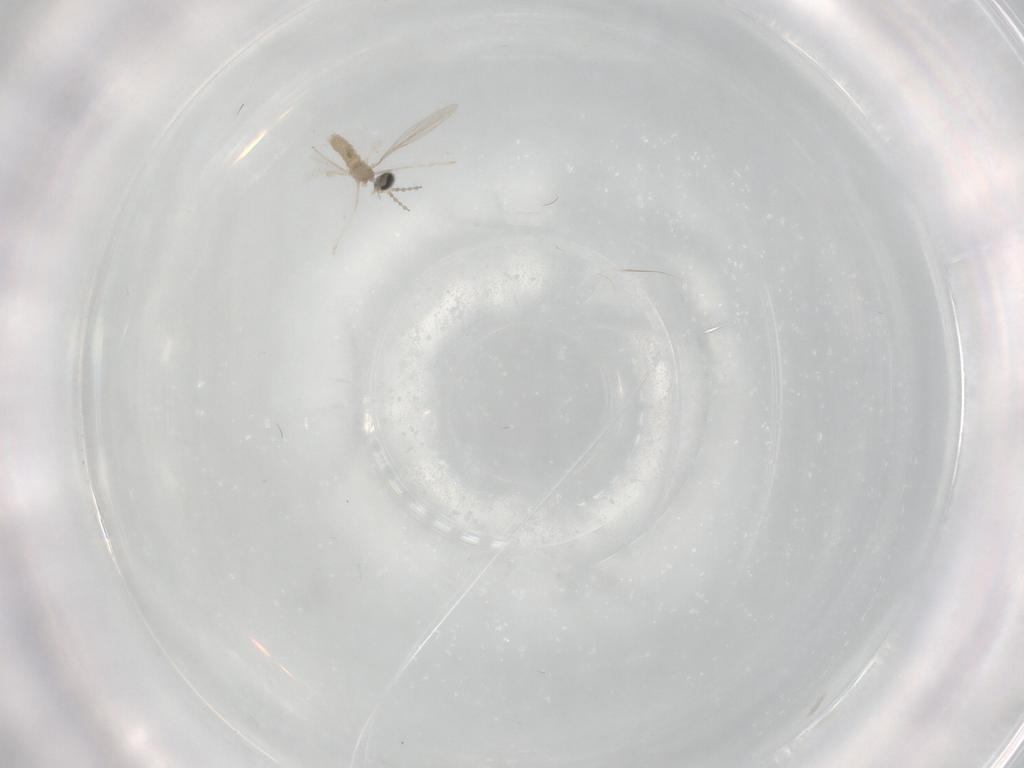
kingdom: Animalia
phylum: Arthropoda
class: Insecta
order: Diptera
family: Cecidomyiidae
